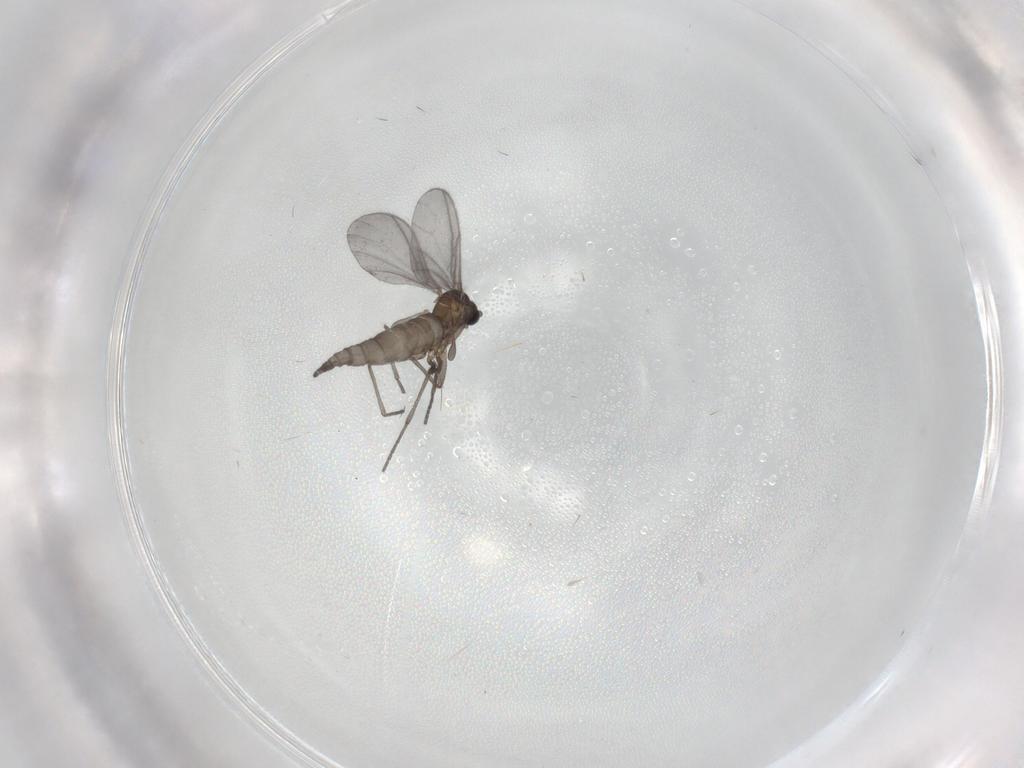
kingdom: Animalia
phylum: Arthropoda
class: Insecta
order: Diptera
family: Sciaridae
